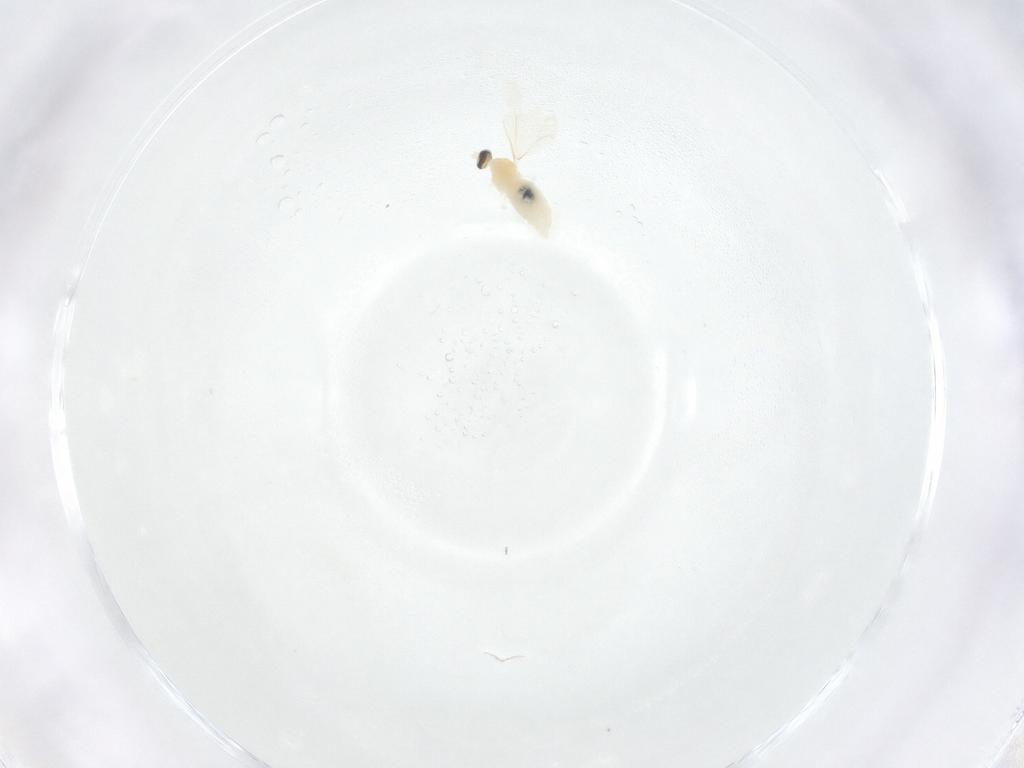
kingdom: Animalia
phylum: Arthropoda
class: Insecta
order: Diptera
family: Cecidomyiidae
